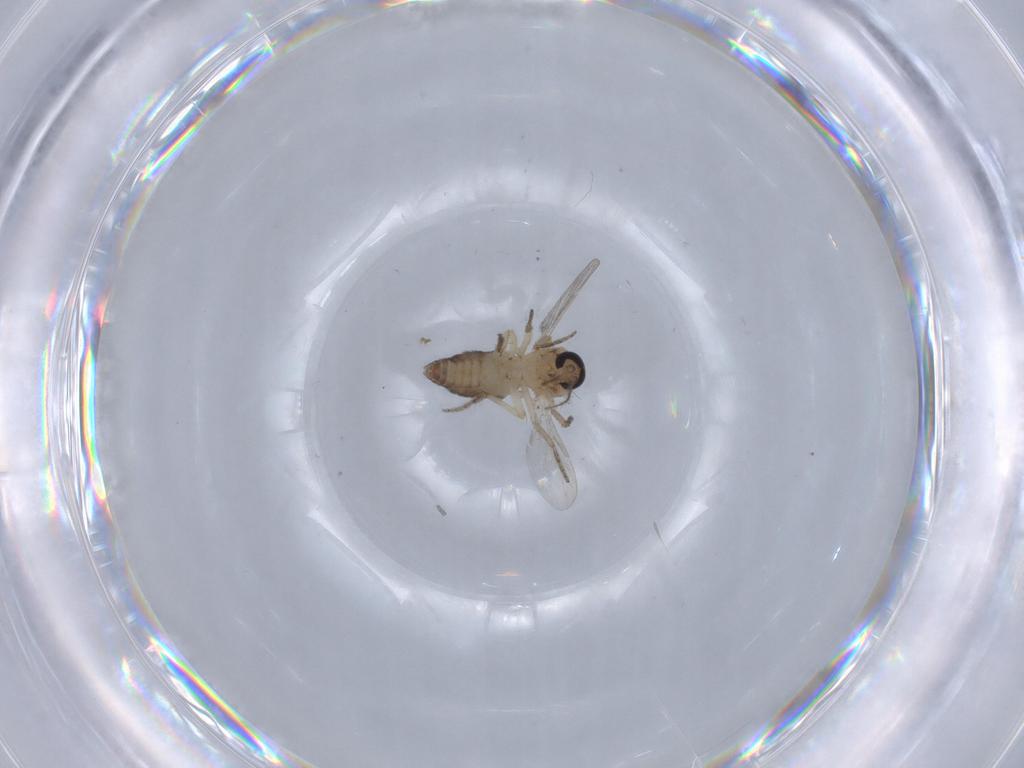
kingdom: Animalia
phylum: Arthropoda
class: Insecta
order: Diptera
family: Ceratopogonidae
